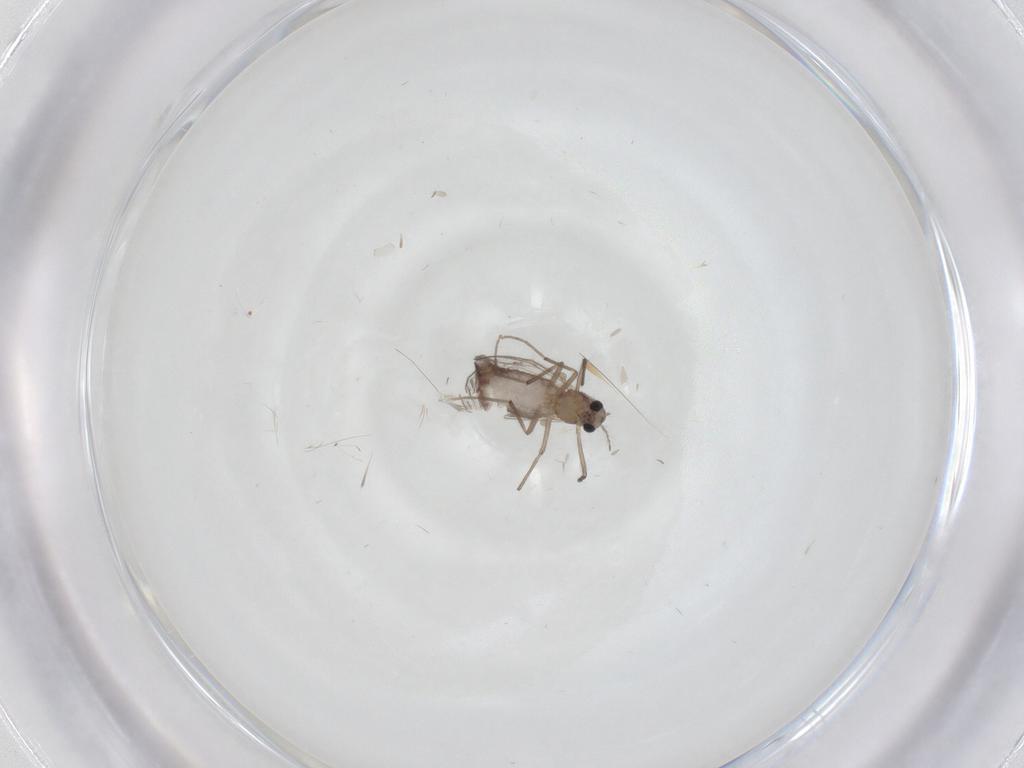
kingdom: Animalia
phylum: Arthropoda
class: Insecta
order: Diptera
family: Chironomidae
